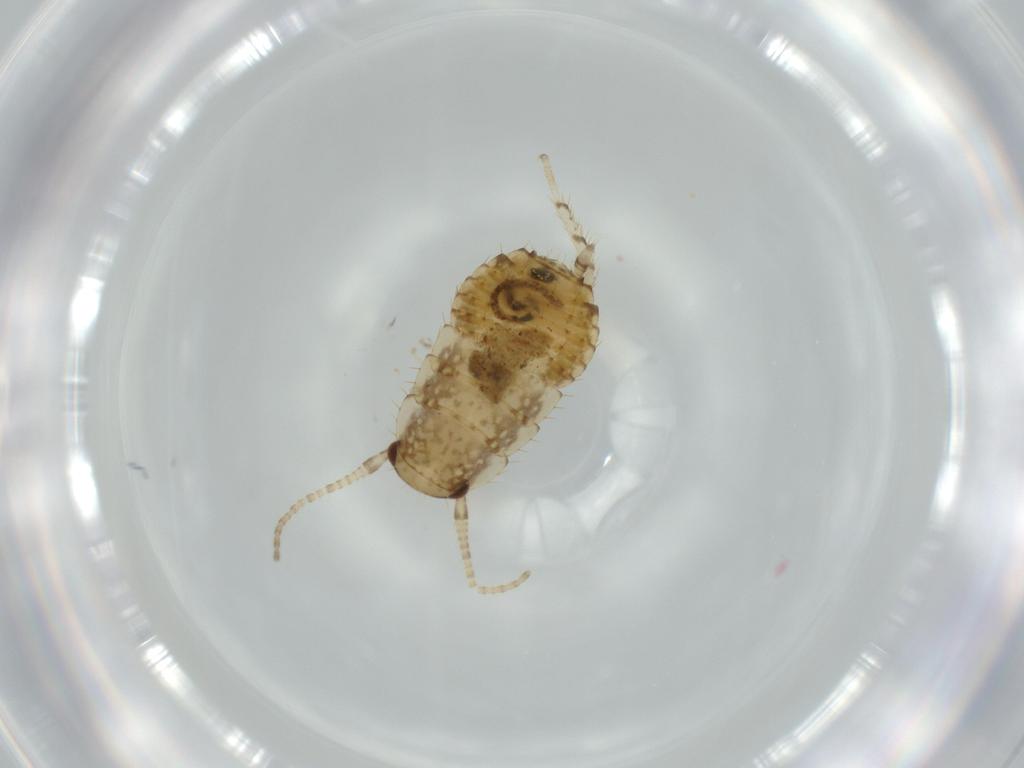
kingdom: Animalia
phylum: Arthropoda
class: Insecta
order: Blattodea
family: Ectobiidae
